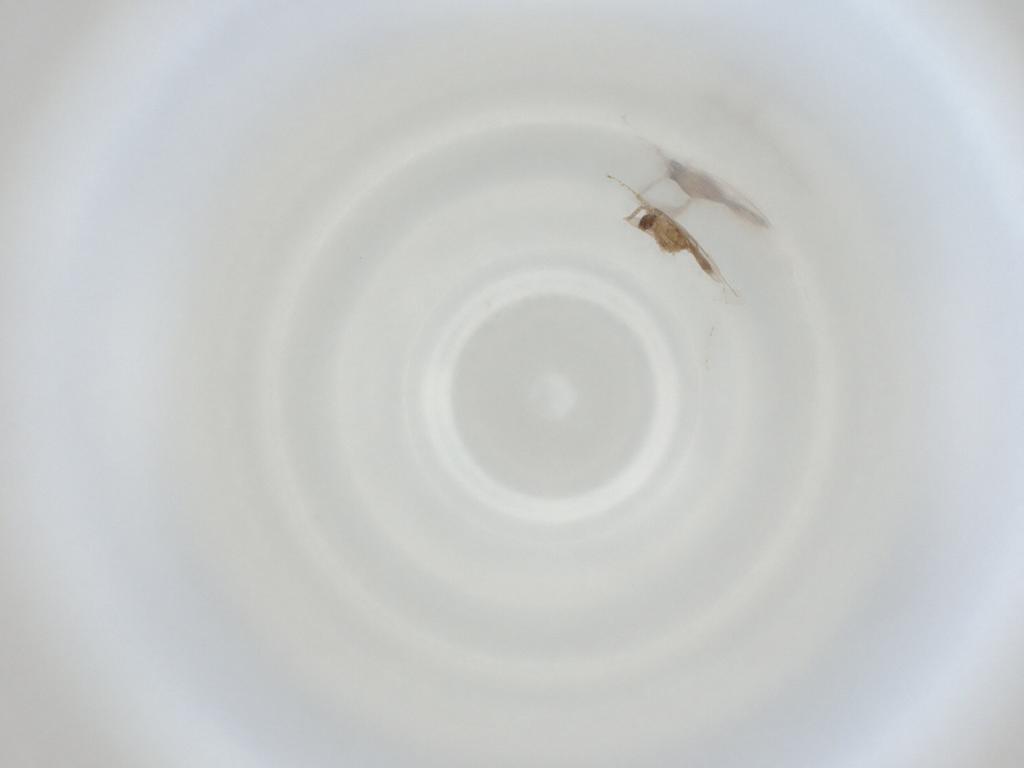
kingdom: Animalia
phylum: Arthropoda
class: Insecta
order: Diptera
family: Cecidomyiidae
